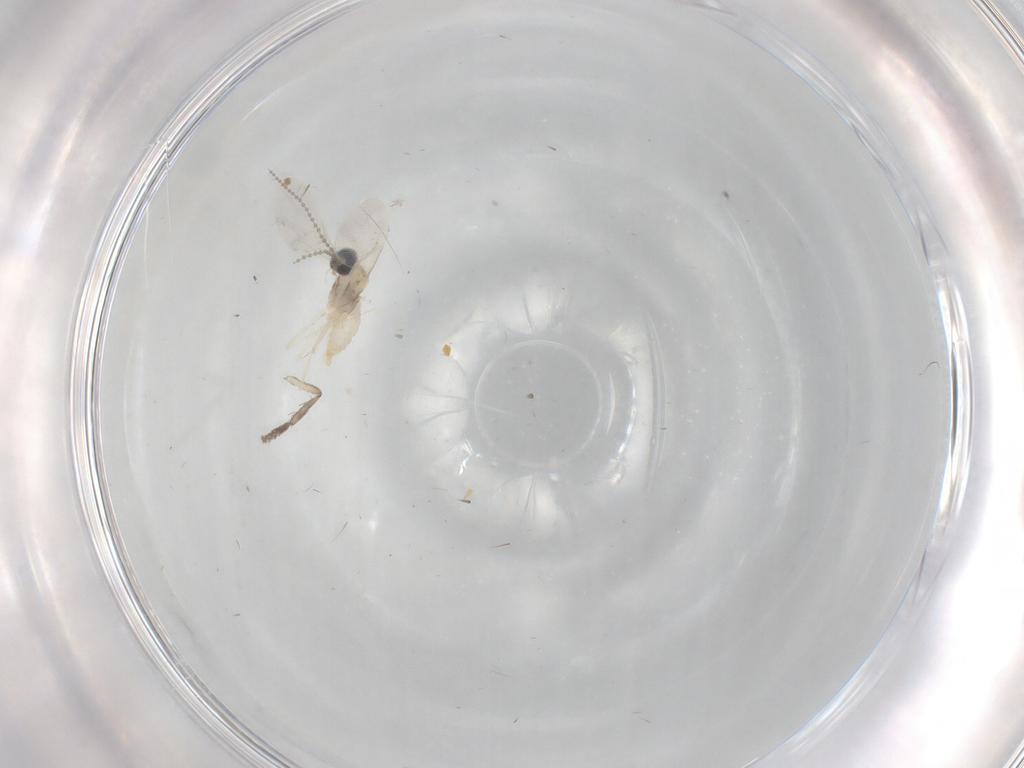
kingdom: Animalia
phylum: Arthropoda
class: Insecta
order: Diptera
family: Cecidomyiidae
